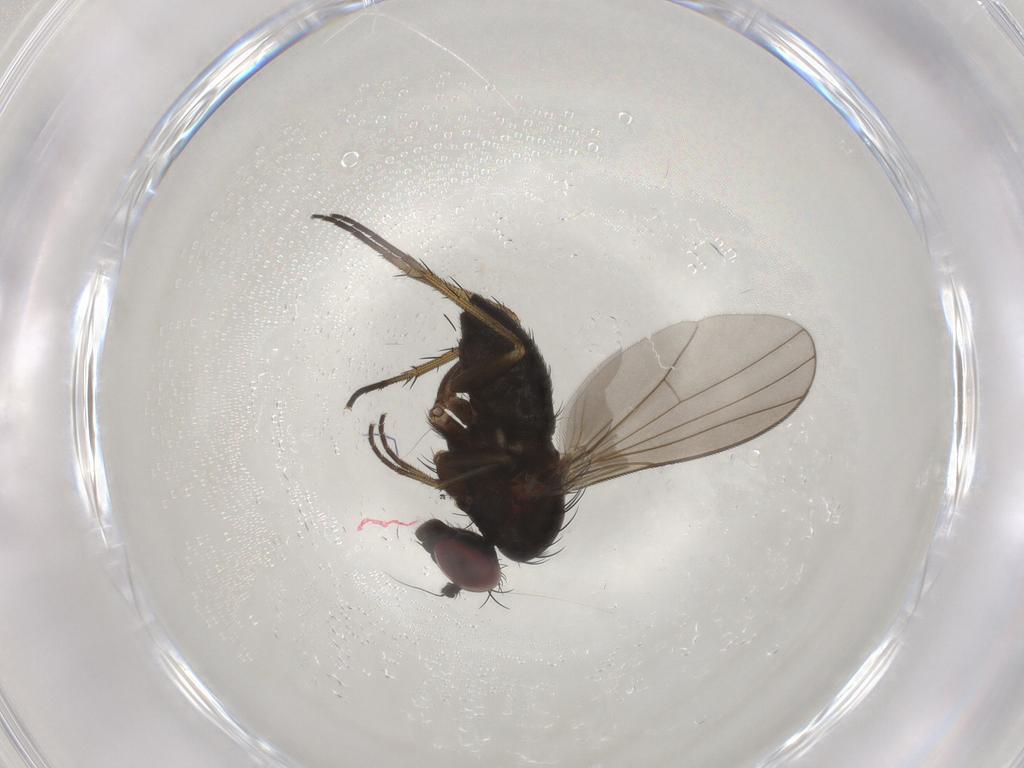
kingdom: Animalia
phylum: Arthropoda
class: Insecta
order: Diptera
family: Dolichopodidae
